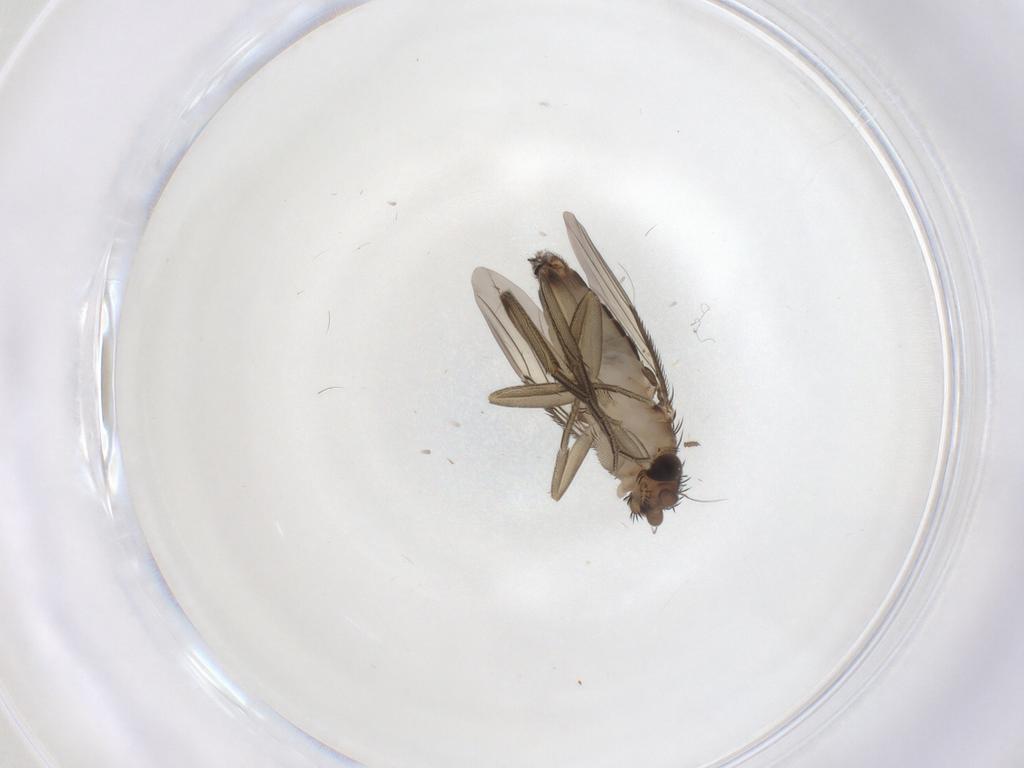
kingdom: Animalia
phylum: Arthropoda
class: Insecta
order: Diptera
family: Phoridae
